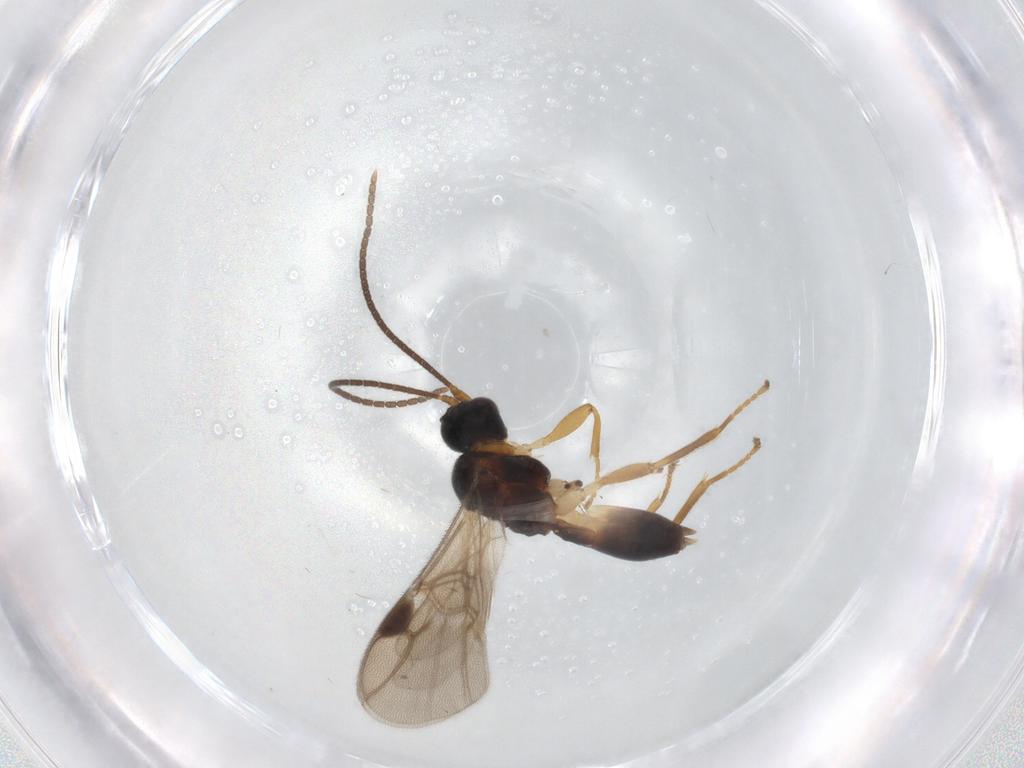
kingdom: Animalia
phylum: Arthropoda
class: Insecta
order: Hymenoptera
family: Braconidae
